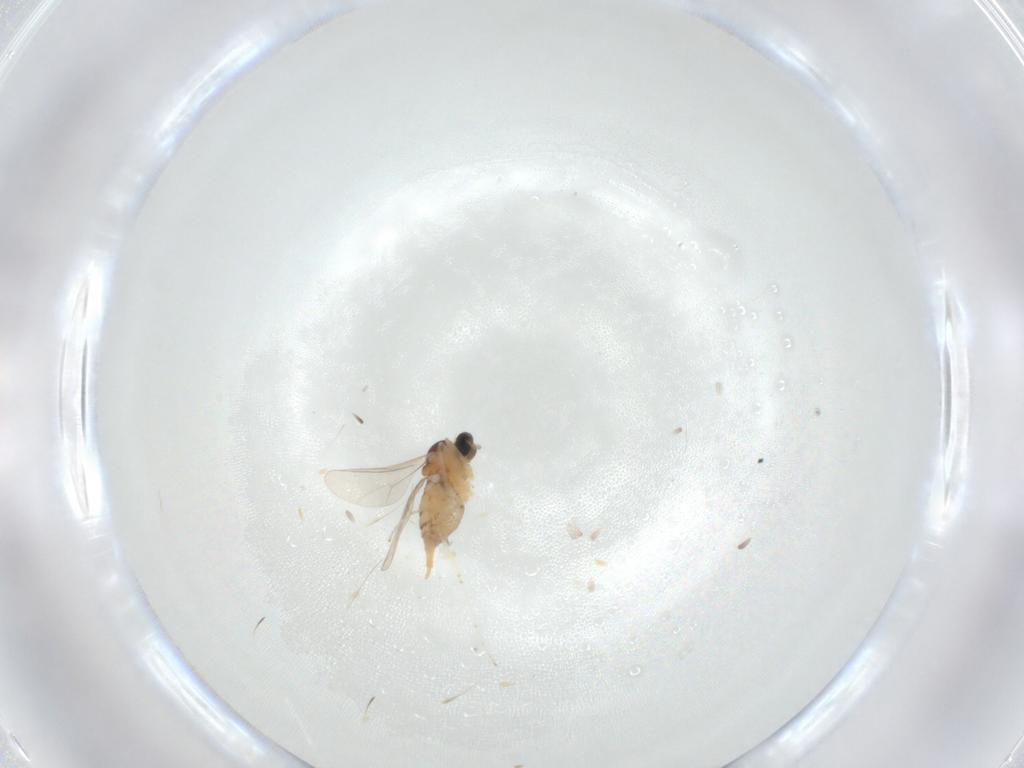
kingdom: Animalia
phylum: Arthropoda
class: Insecta
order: Diptera
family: Cecidomyiidae
